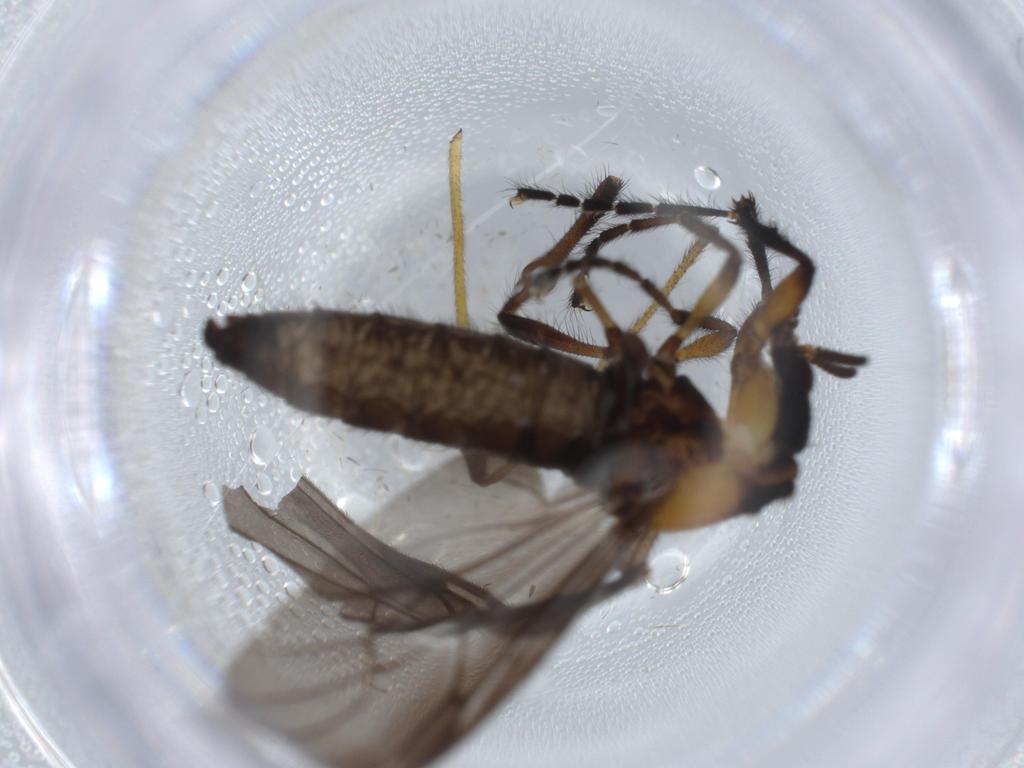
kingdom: Animalia
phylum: Arthropoda
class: Insecta
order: Diptera
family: Limoniidae
